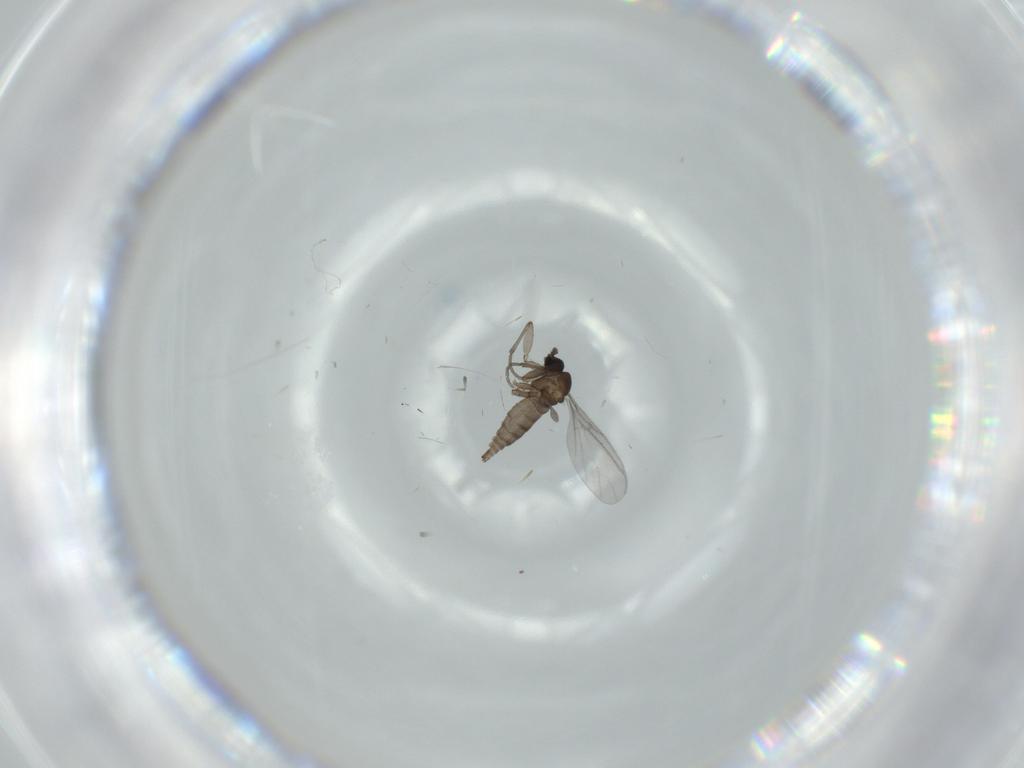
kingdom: Animalia
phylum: Arthropoda
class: Insecta
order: Diptera
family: Sciaridae
